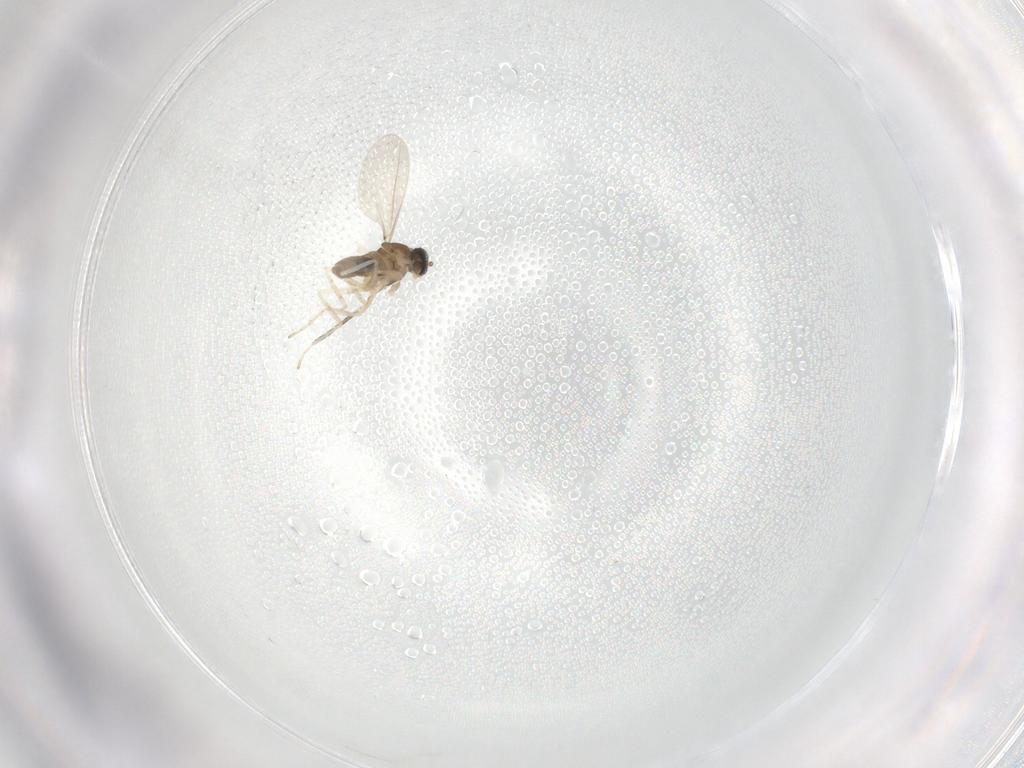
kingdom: Animalia
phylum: Arthropoda
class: Insecta
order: Diptera
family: Cecidomyiidae
